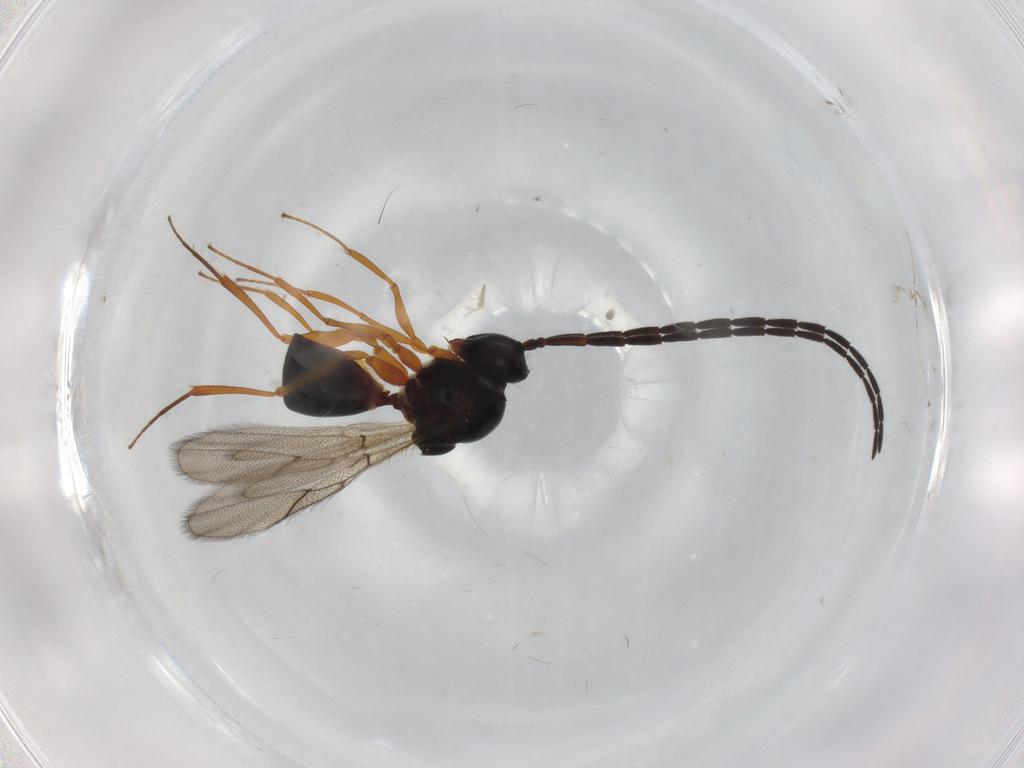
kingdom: Animalia
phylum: Arthropoda
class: Insecta
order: Hymenoptera
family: Figitidae
